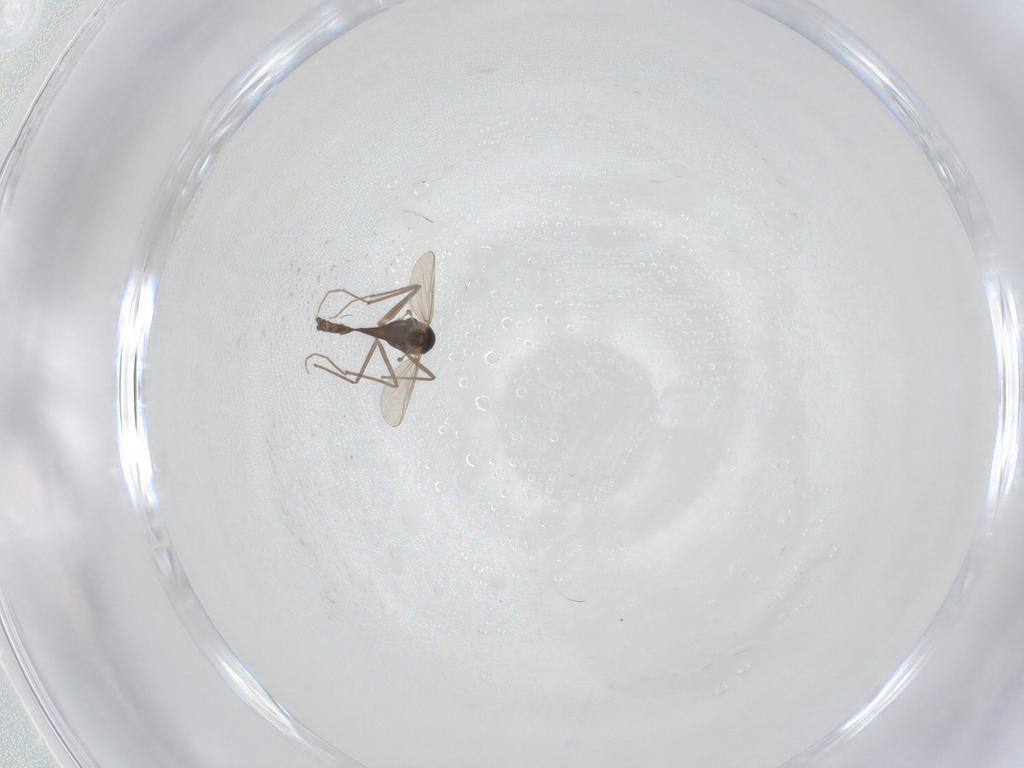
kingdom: Animalia
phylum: Arthropoda
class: Insecta
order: Diptera
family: Chironomidae
